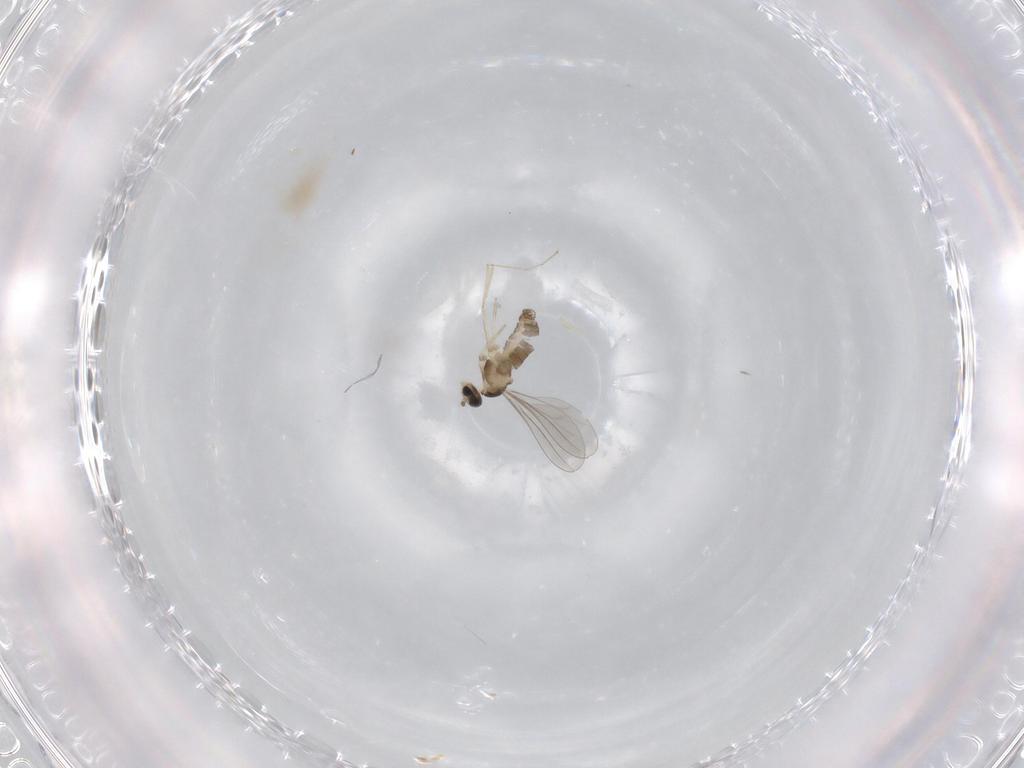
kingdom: Animalia
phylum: Arthropoda
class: Insecta
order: Diptera
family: Cecidomyiidae
